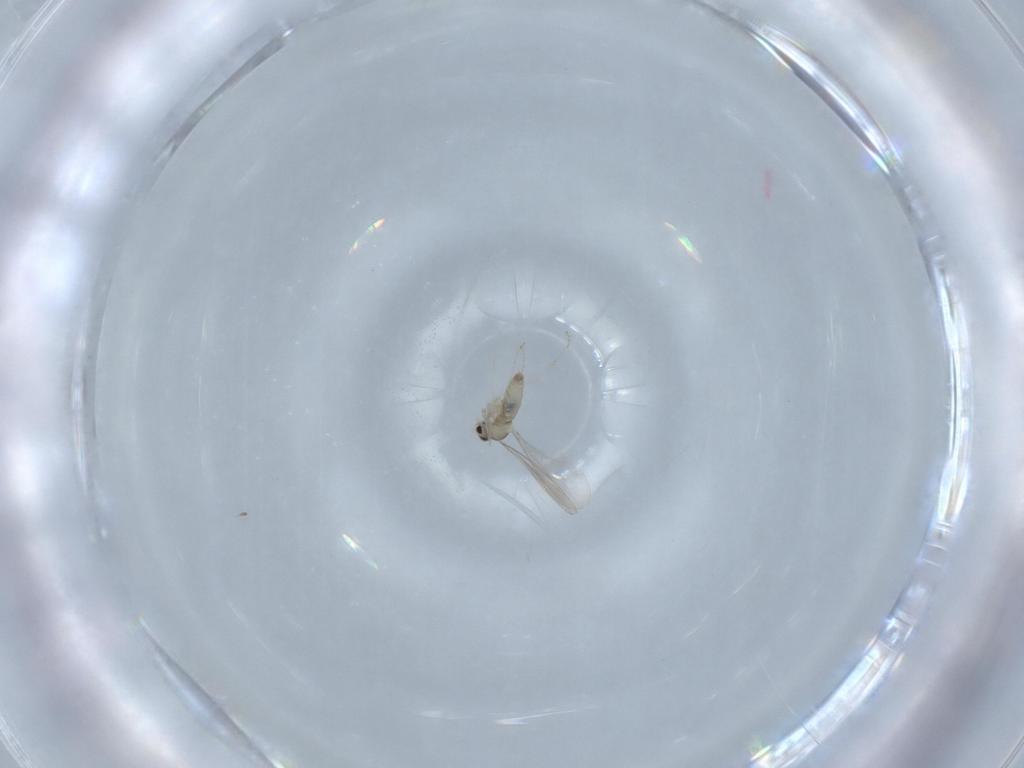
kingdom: Animalia
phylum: Arthropoda
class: Insecta
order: Diptera
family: Cecidomyiidae
